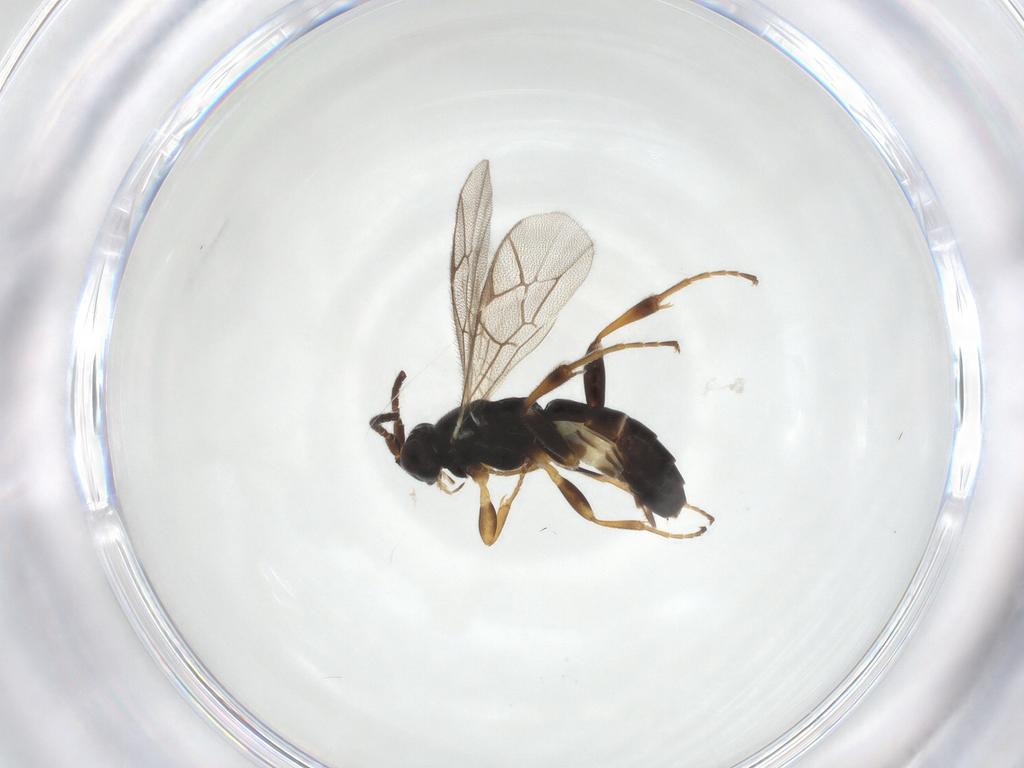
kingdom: Animalia
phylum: Arthropoda
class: Insecta
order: Hymenoptera
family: Ichneumonidae
